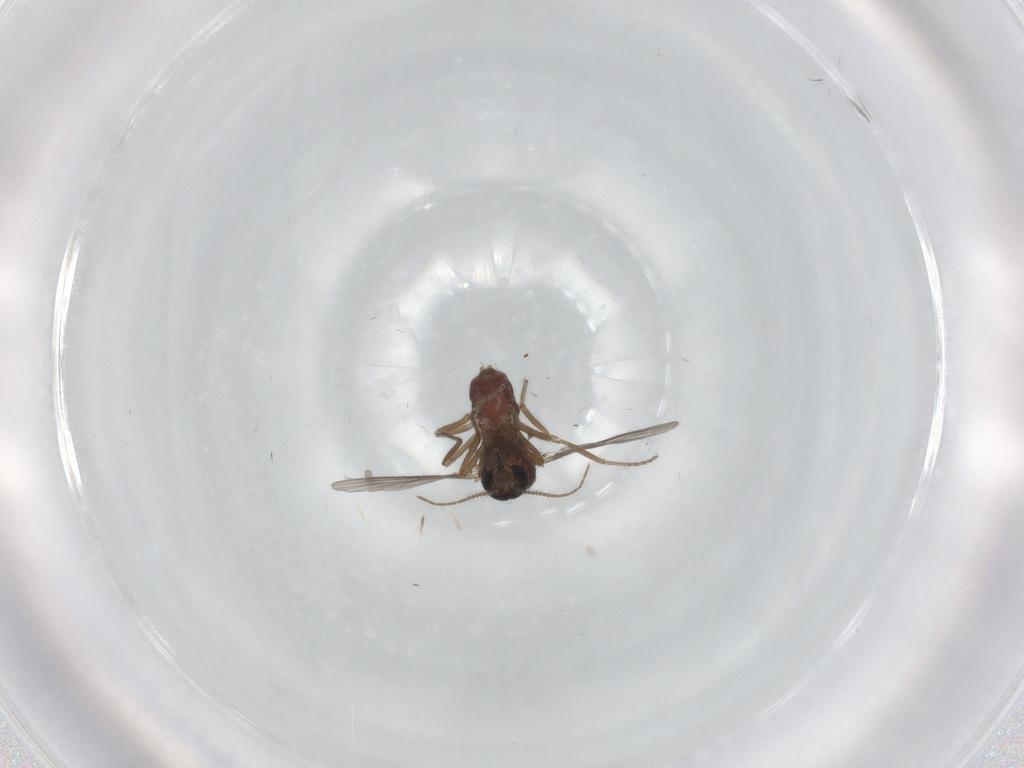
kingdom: Animalia
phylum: Arthropoda
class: Insecta
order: Diptera
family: Ceratopogonidae
